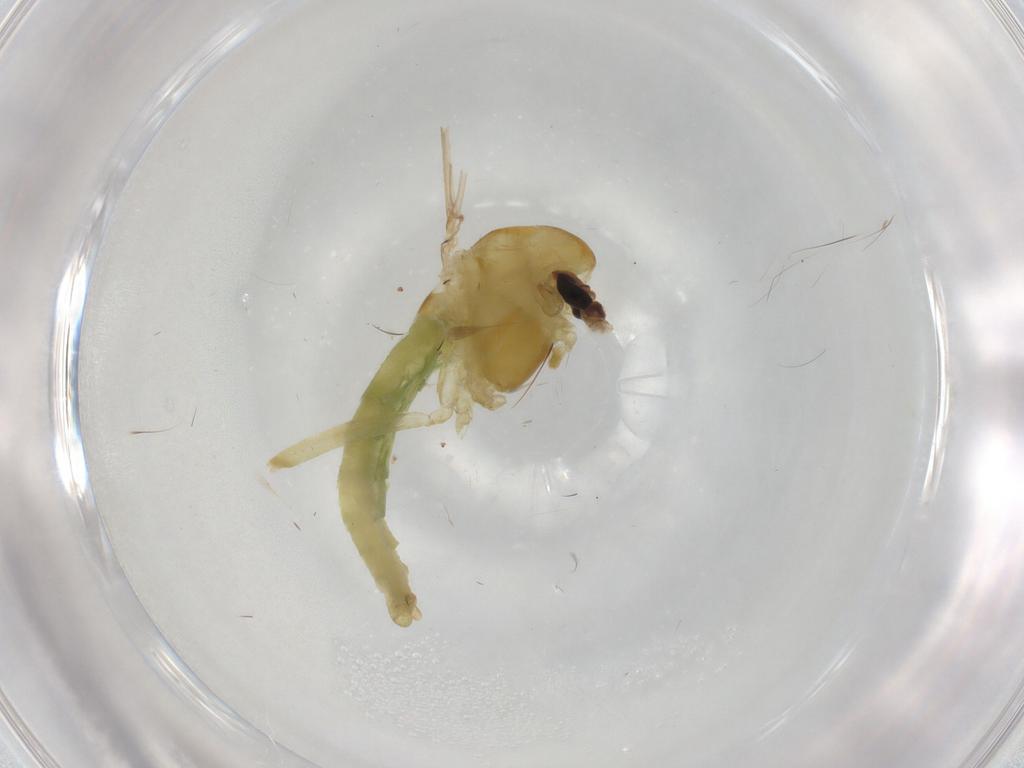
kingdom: Animalia
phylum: Arthropoda
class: Insecta
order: Diptera
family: Chironomidae
